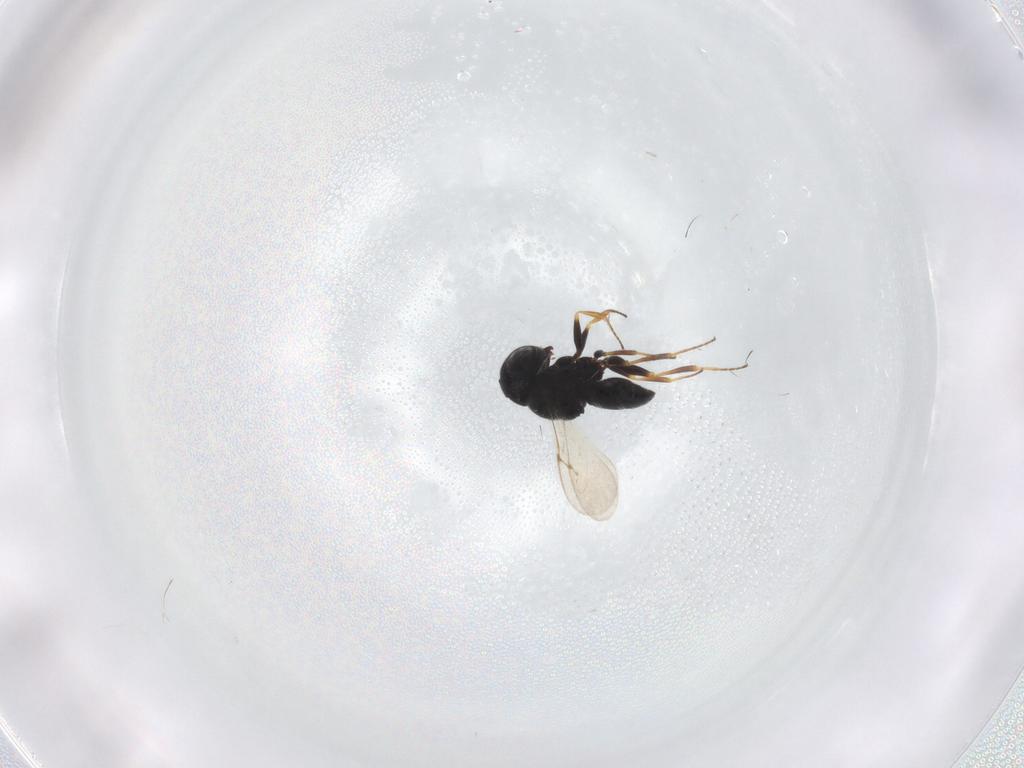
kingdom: Animalia
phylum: Arthropoda
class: Insecta
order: Hymenoptera
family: Scelionidae
